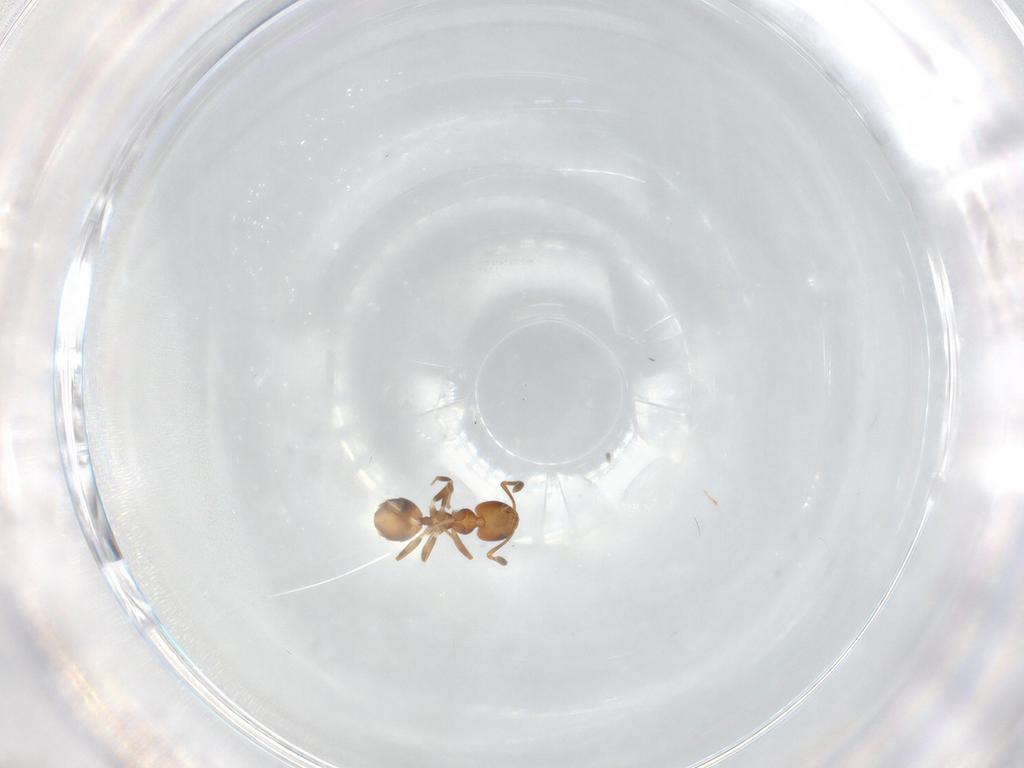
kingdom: Animalia
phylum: Arthropoda
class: Insecta
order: Hymenoptera
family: Formicidae
